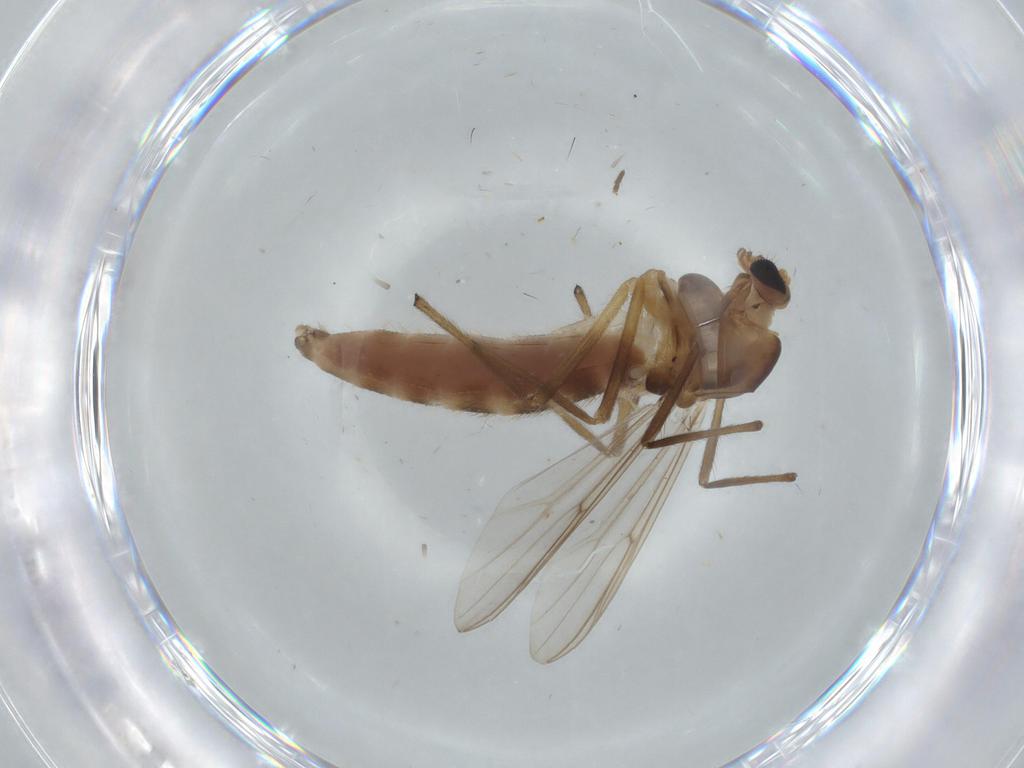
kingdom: Animalia
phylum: Arthropoda
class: Insecta
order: Diptera
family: Chironomidae
